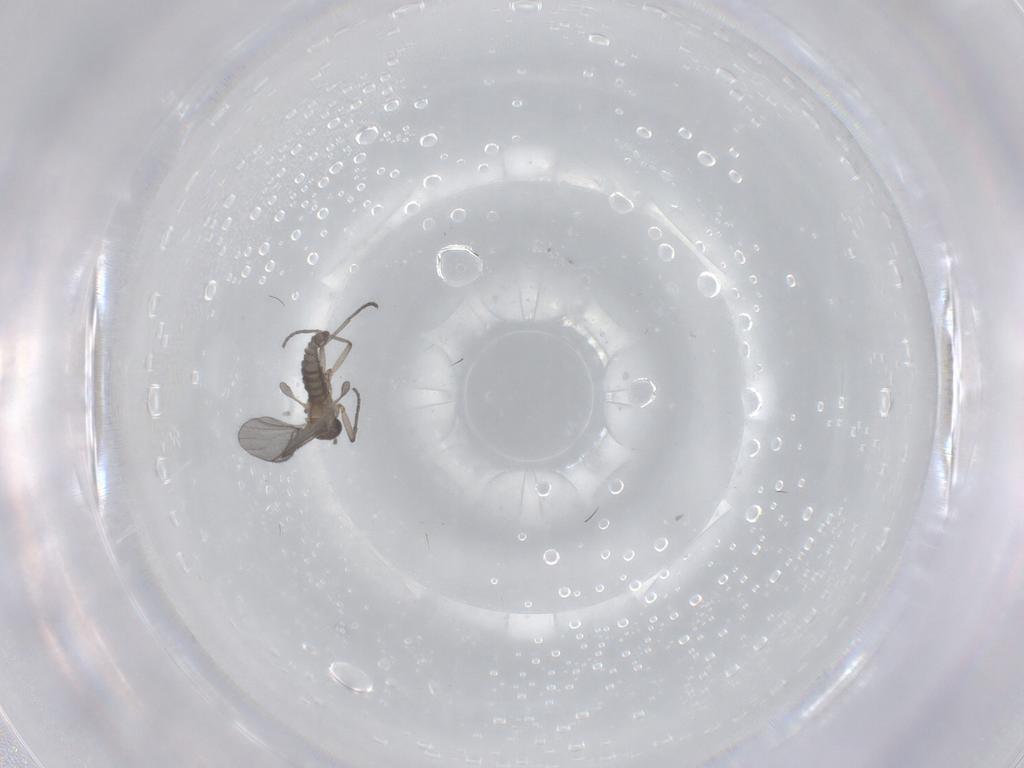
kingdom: Animalia
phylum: Arthropoda
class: Insecta
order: Diptera
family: Sciaridae
